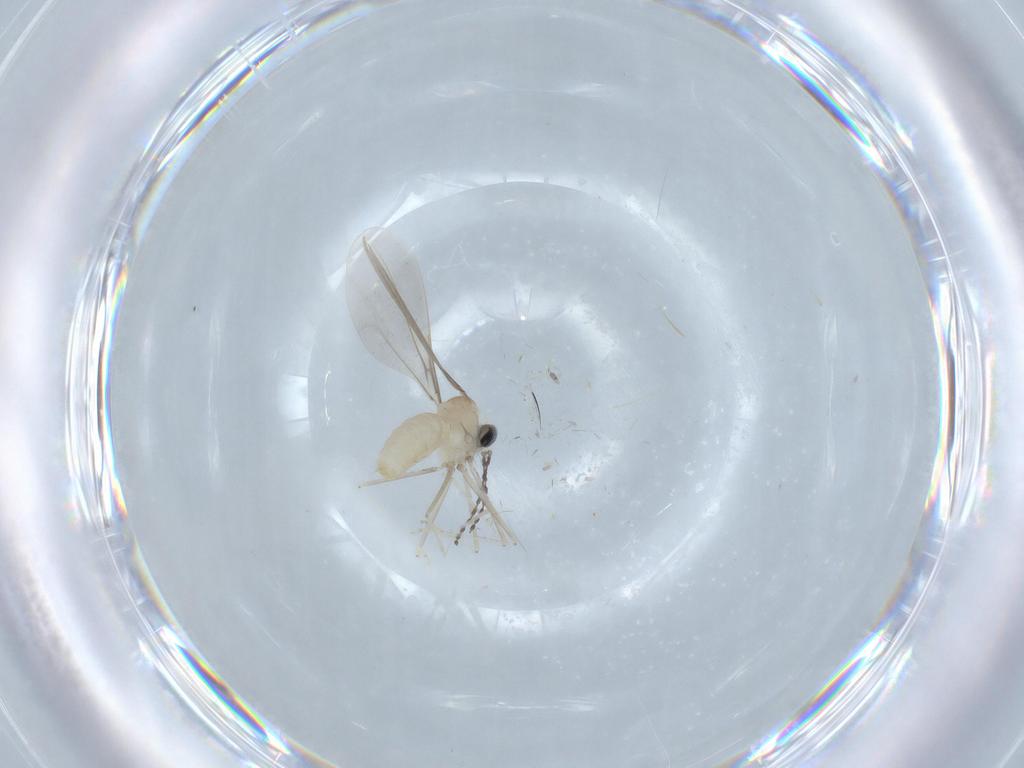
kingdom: Animalia
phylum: Arthropoda
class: Insecta
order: Diptera
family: Cecidomyiidae
